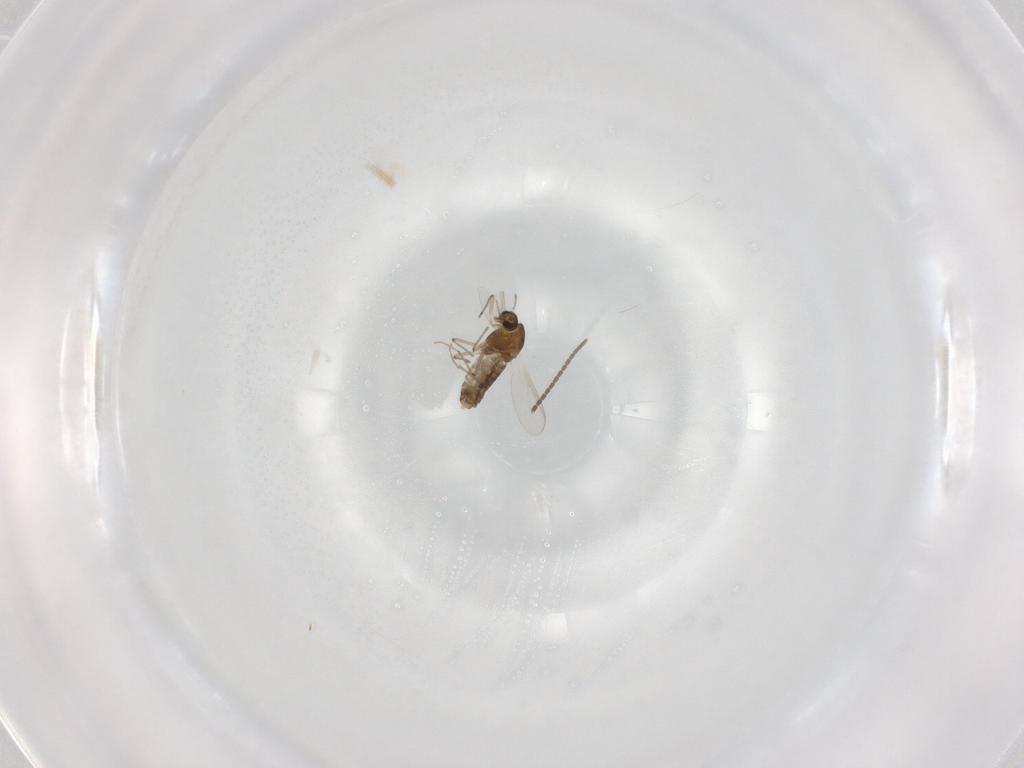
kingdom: Animalia
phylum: Arthropoda
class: Insecta
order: Diptera
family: Chironomidae
